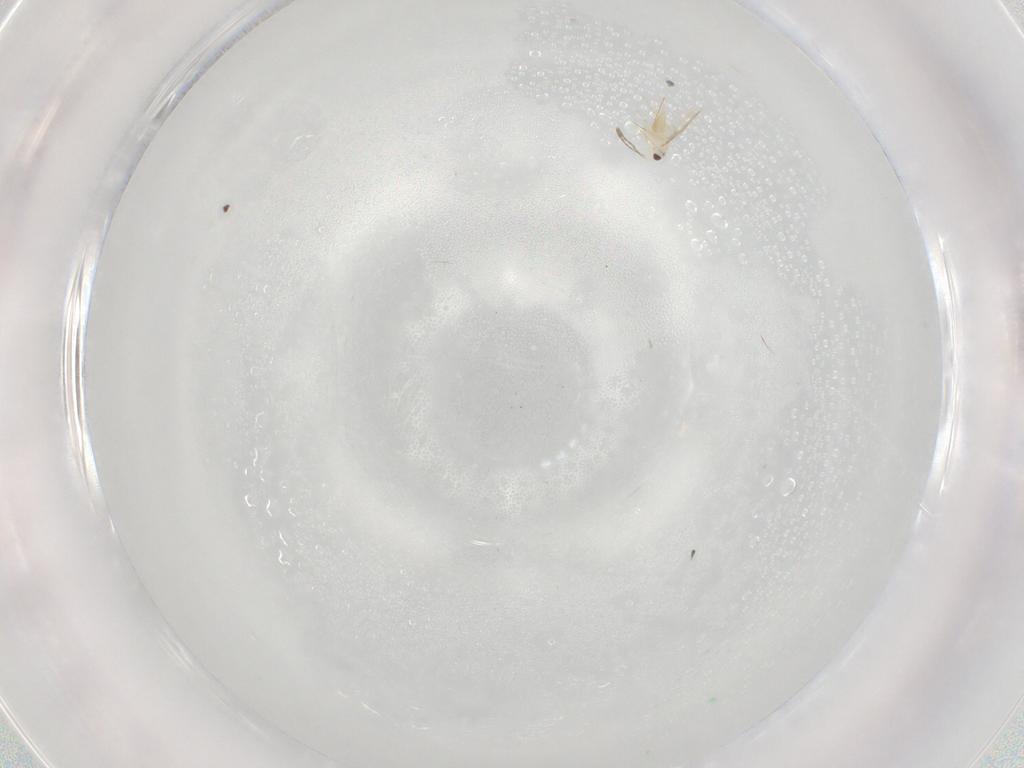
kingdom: Animalia
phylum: Arthropoda
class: Insecta
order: Hymenoptera
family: Mymaridae
